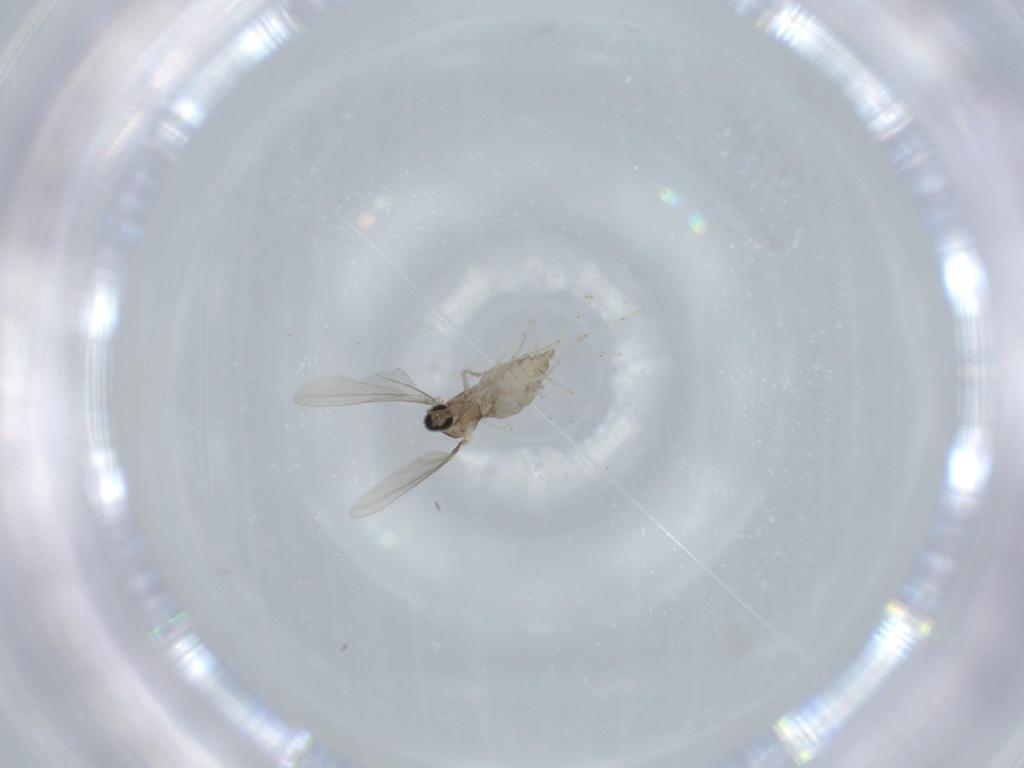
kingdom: Animalia
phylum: Arthropoda
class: Insecta
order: Diptera
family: Cecidomyiidae
